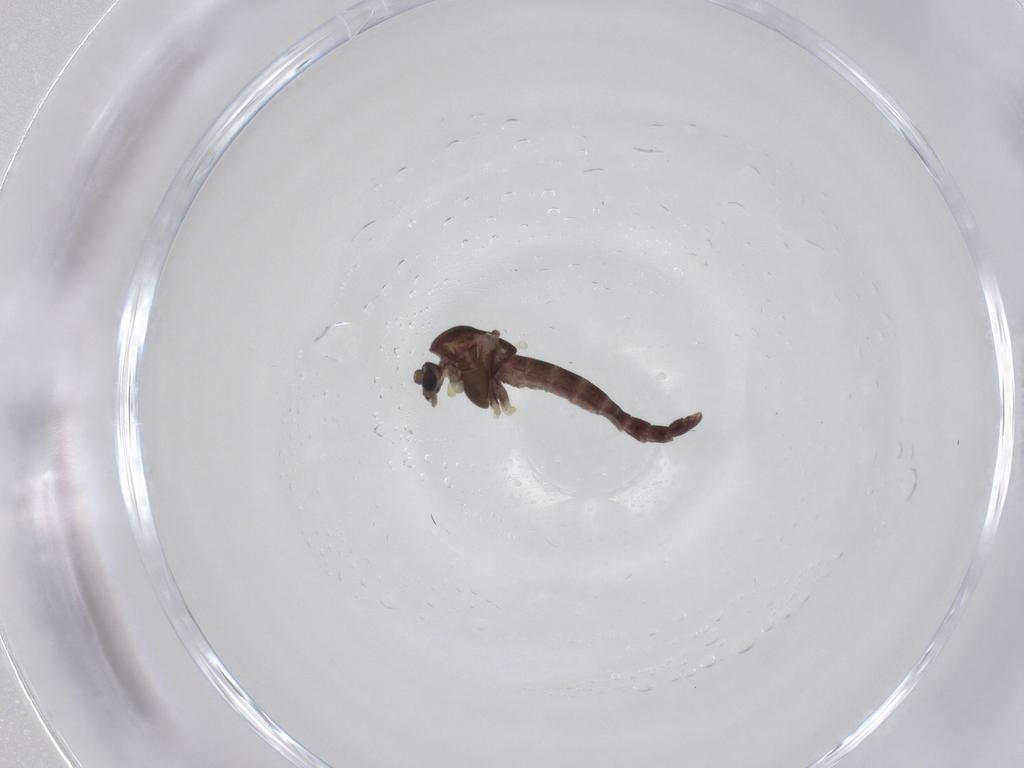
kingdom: Animalia
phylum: Arthropoda
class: Insecta
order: Diptera
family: Chironomidae
